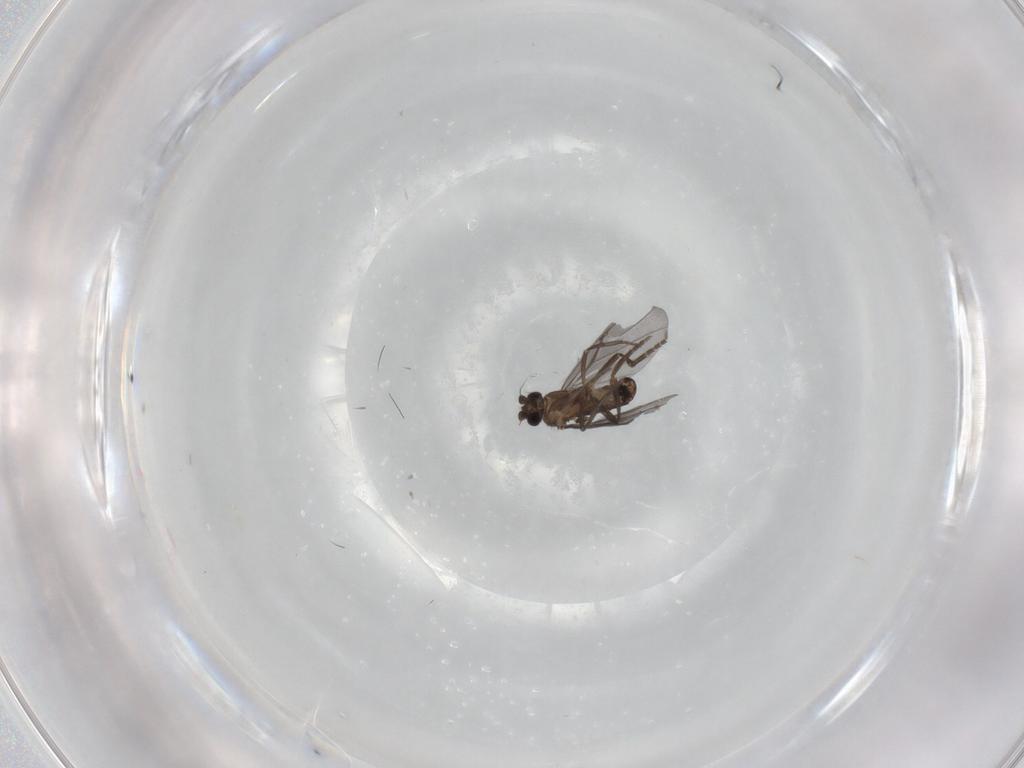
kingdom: Animalia
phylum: Arthropoda
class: Insecta
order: Diptera
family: Phoridae
